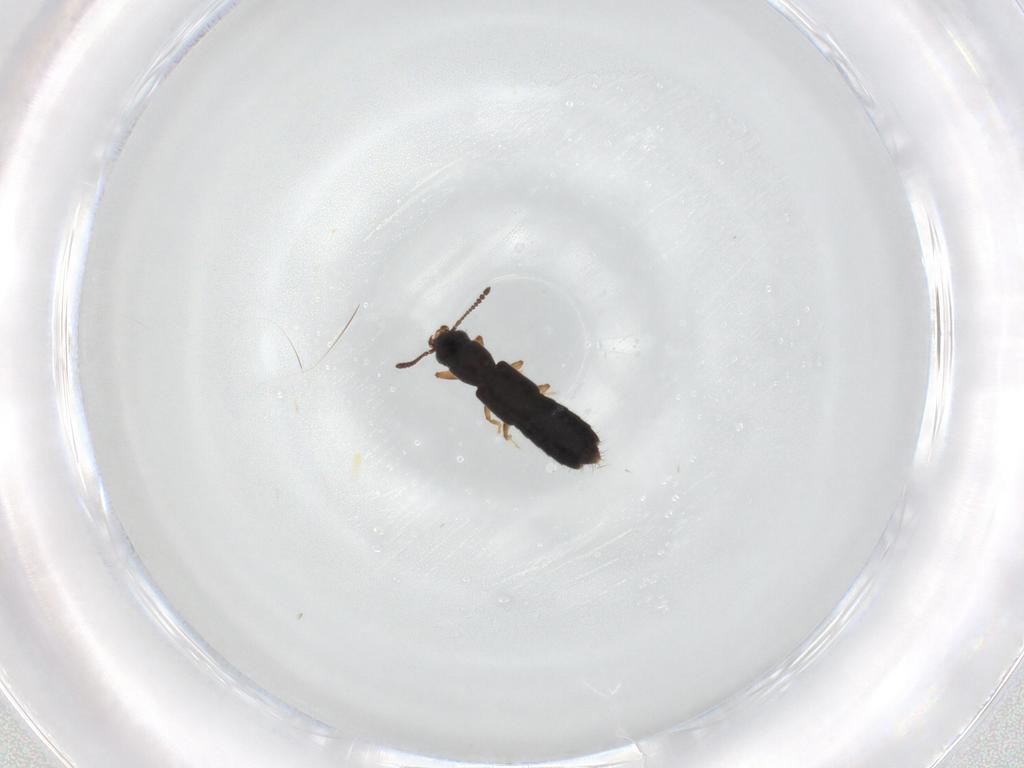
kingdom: Animalia
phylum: Arthropoda
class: Insecta
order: Coleoptera
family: Staphylinidae
